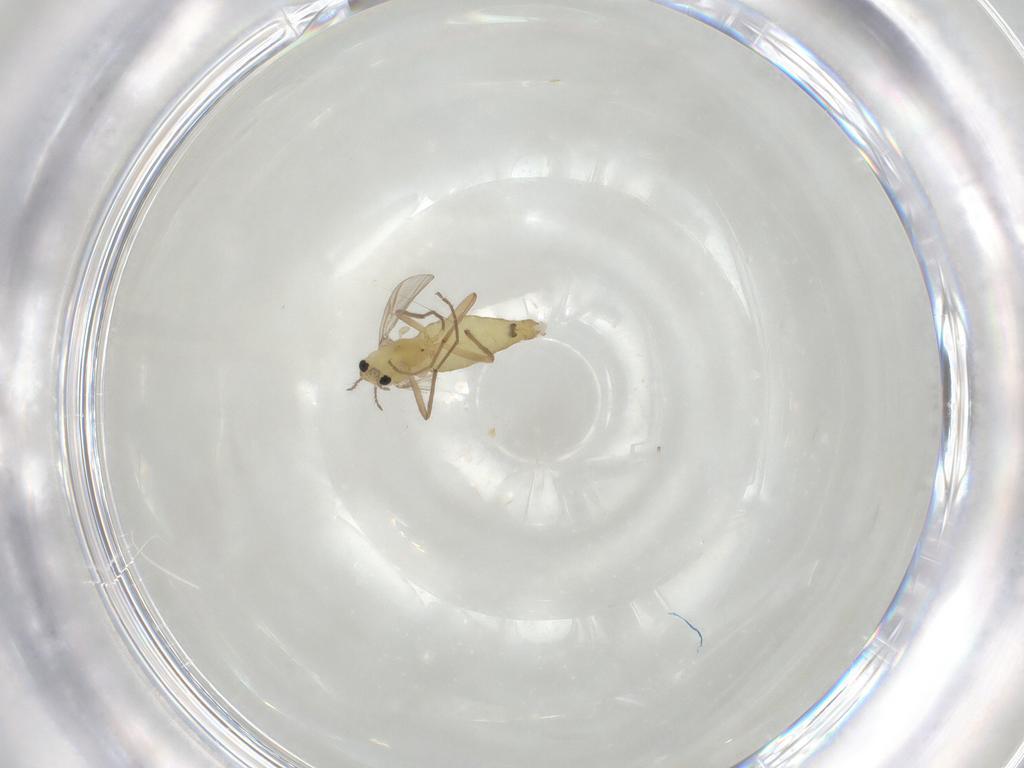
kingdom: Animalia
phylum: Arthropoda
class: Insecta
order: Diptera
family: Chironomidae
